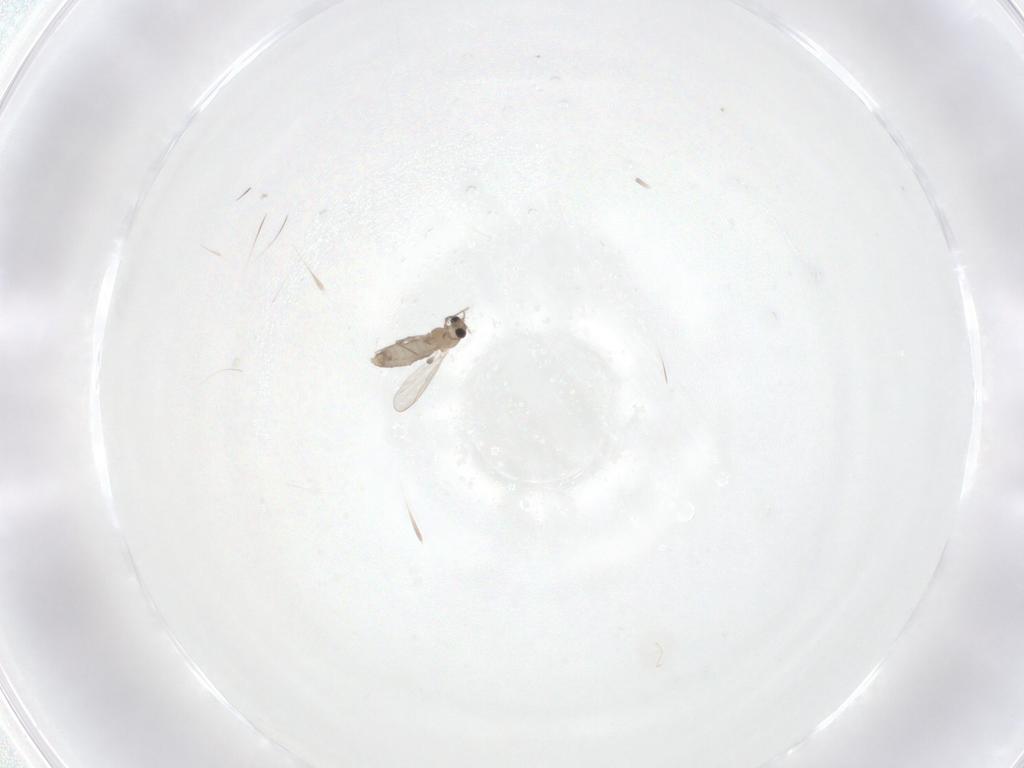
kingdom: Animalia
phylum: Arthropoda
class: Insecta
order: Diptera
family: Chironomidae
